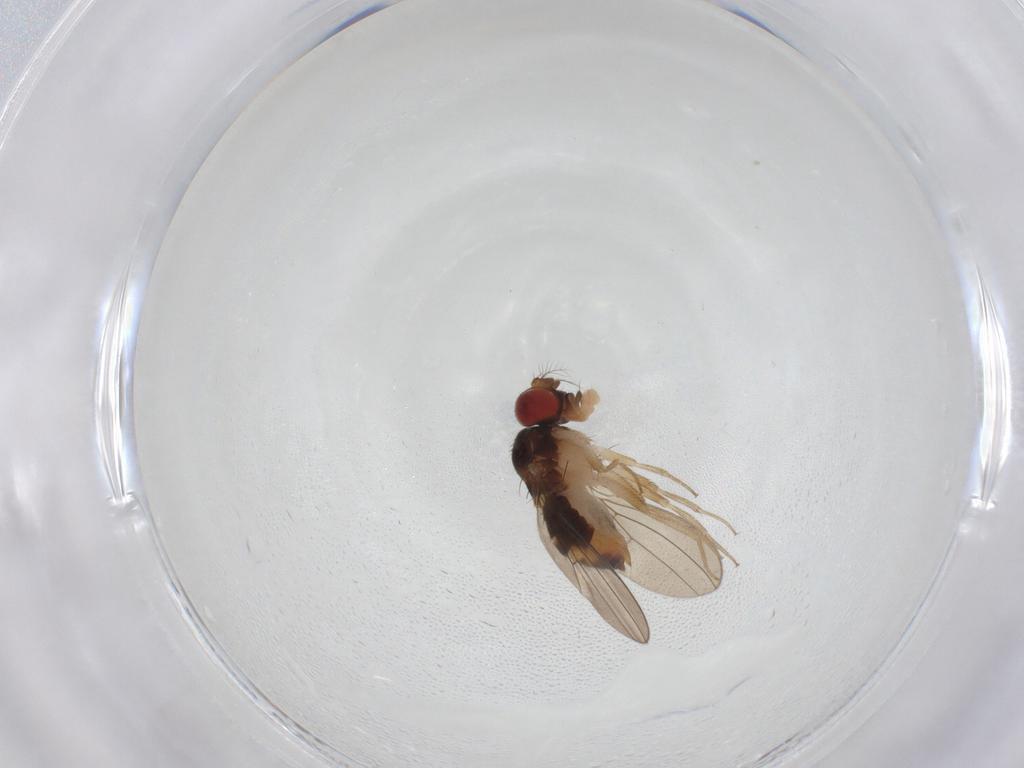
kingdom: Animalia
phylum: Arthropoda
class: Insecta
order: Diptera
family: Drosophilidae
